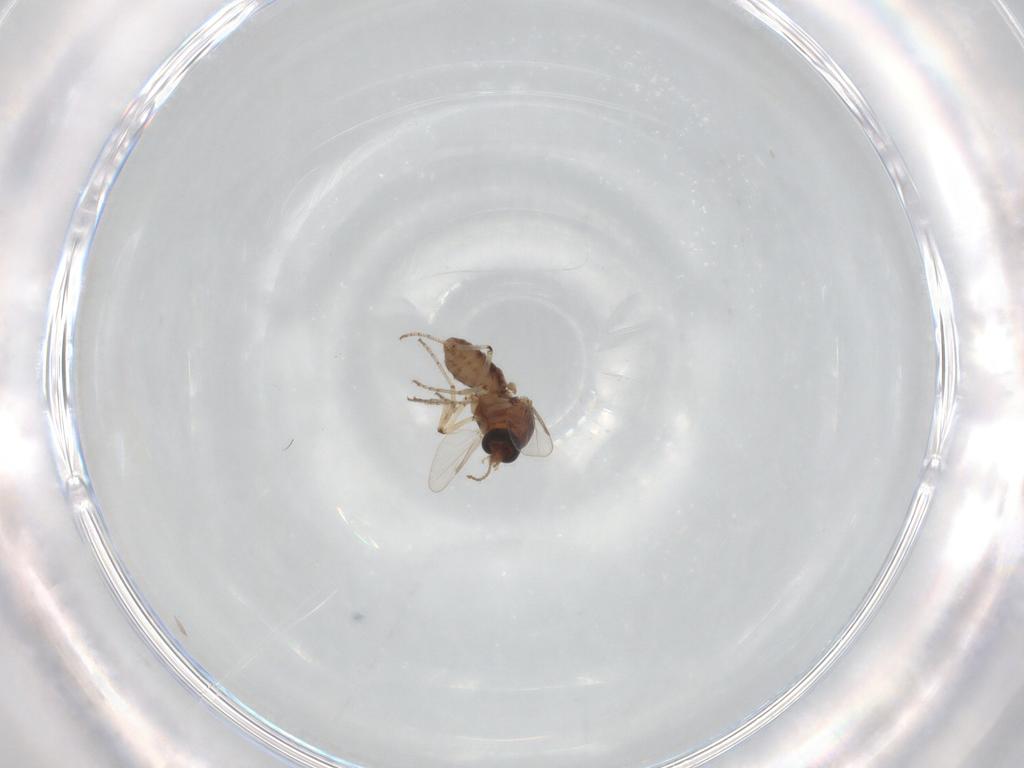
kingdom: Animalia
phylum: Arthropoda
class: Insecta
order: Diptera
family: Ceratopogonidae
